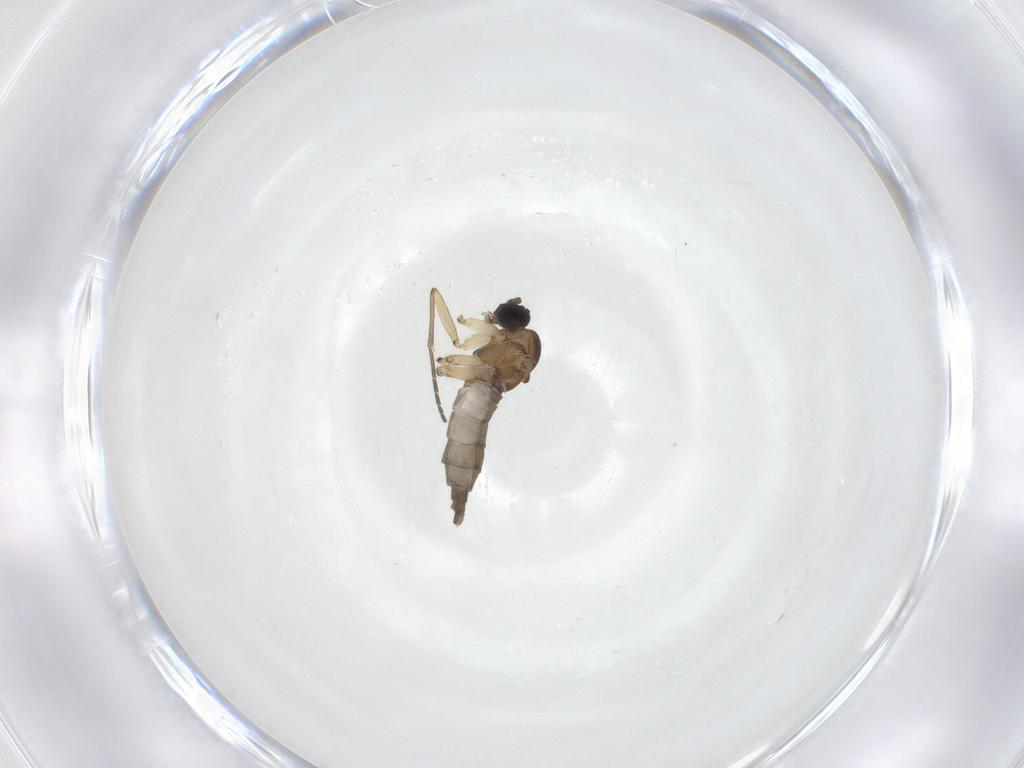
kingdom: Animalia
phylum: Arthropoda
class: Insecta
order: Diptera
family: Sciaridae
